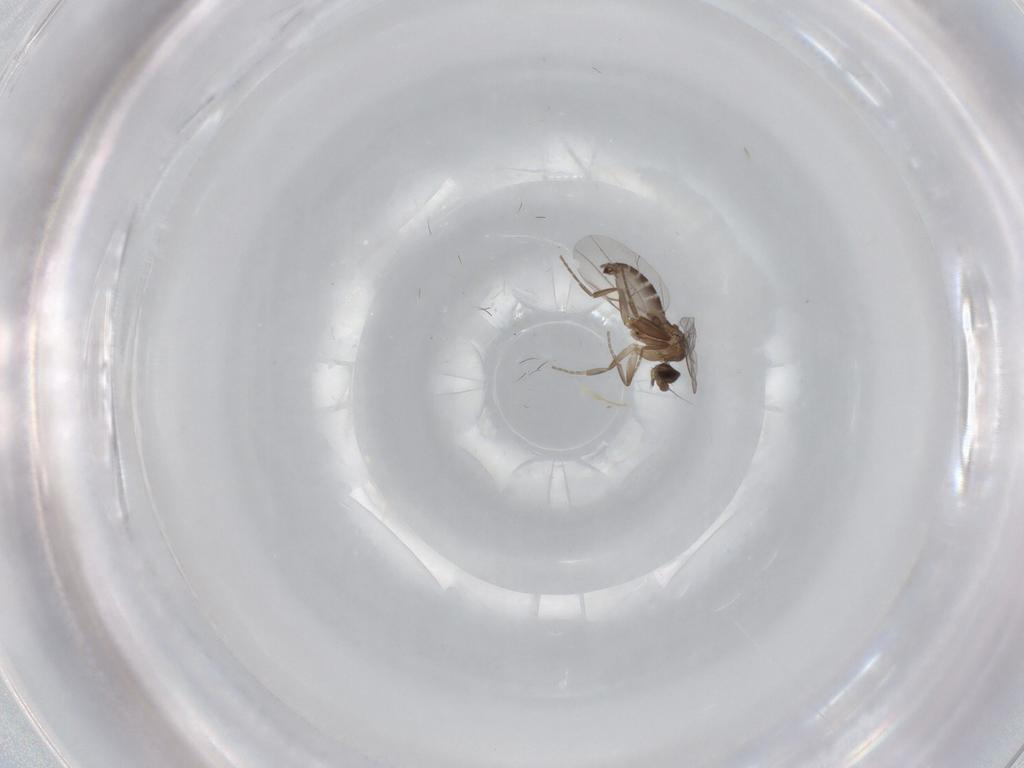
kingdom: Animalia
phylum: Arthropoda
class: Insecta
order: Diptera
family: Phoridae
